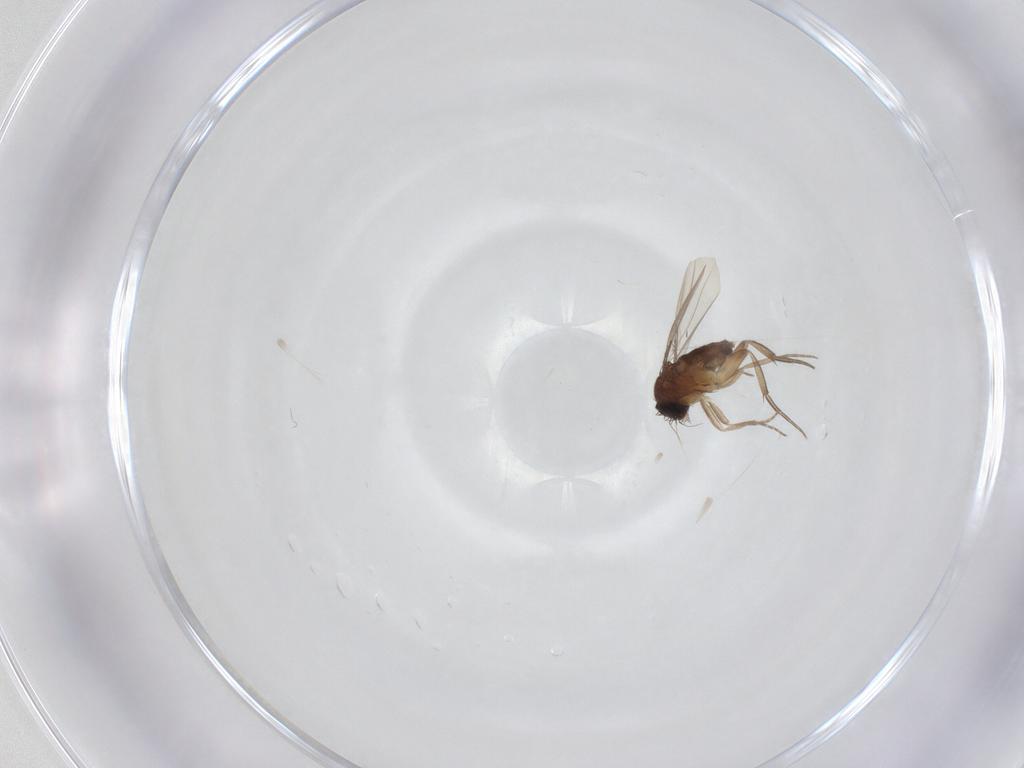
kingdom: Animalia
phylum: Arthropoda
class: Insecta
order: Diptera
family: Phoridae
